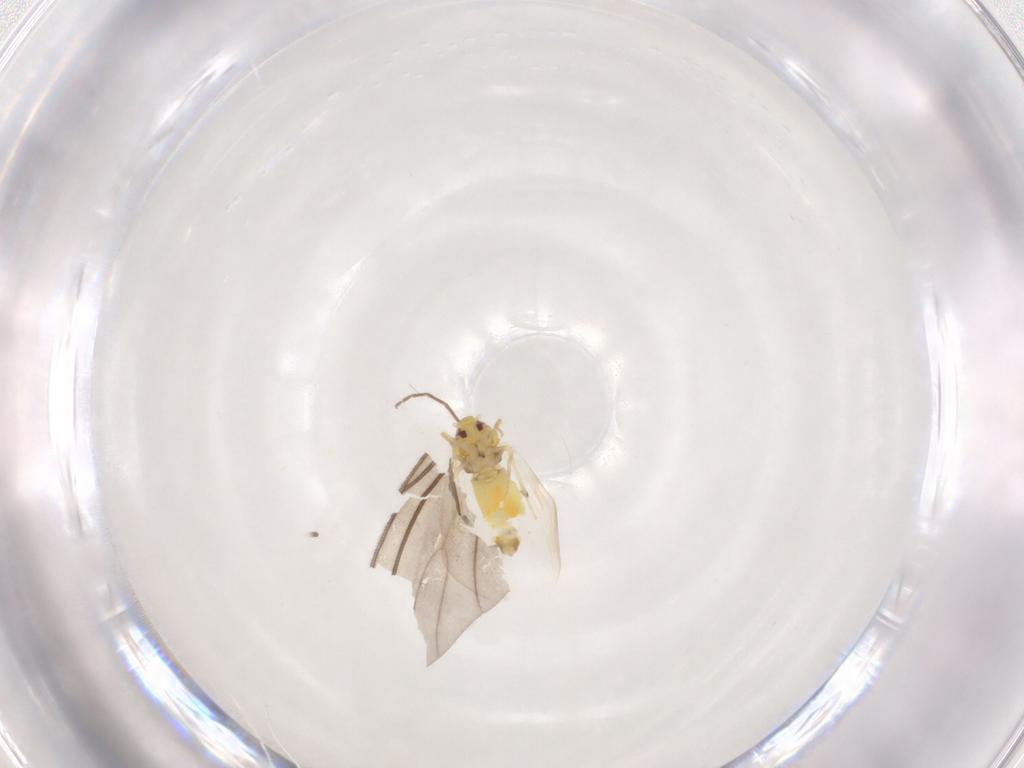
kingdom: Animalia
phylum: Arthropoda
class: Insecta
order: Hemiptera
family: Aleyrodidae
